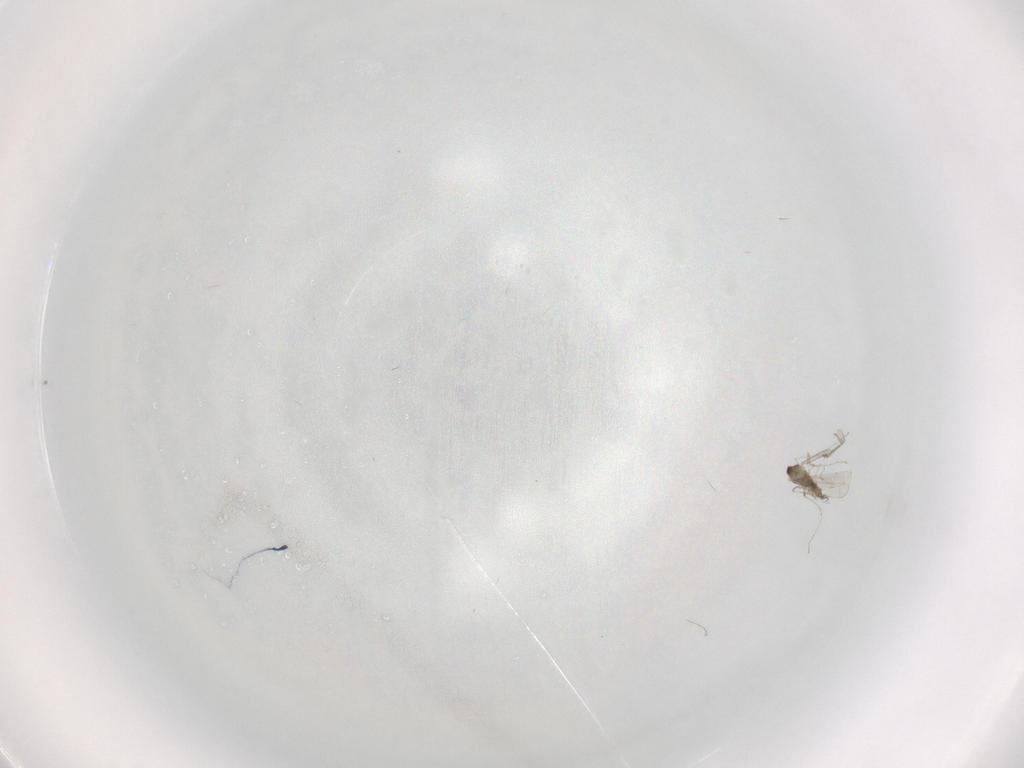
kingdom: Animalia
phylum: Arthropoda
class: Insecta
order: Diptera
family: Cecidomyiidae
